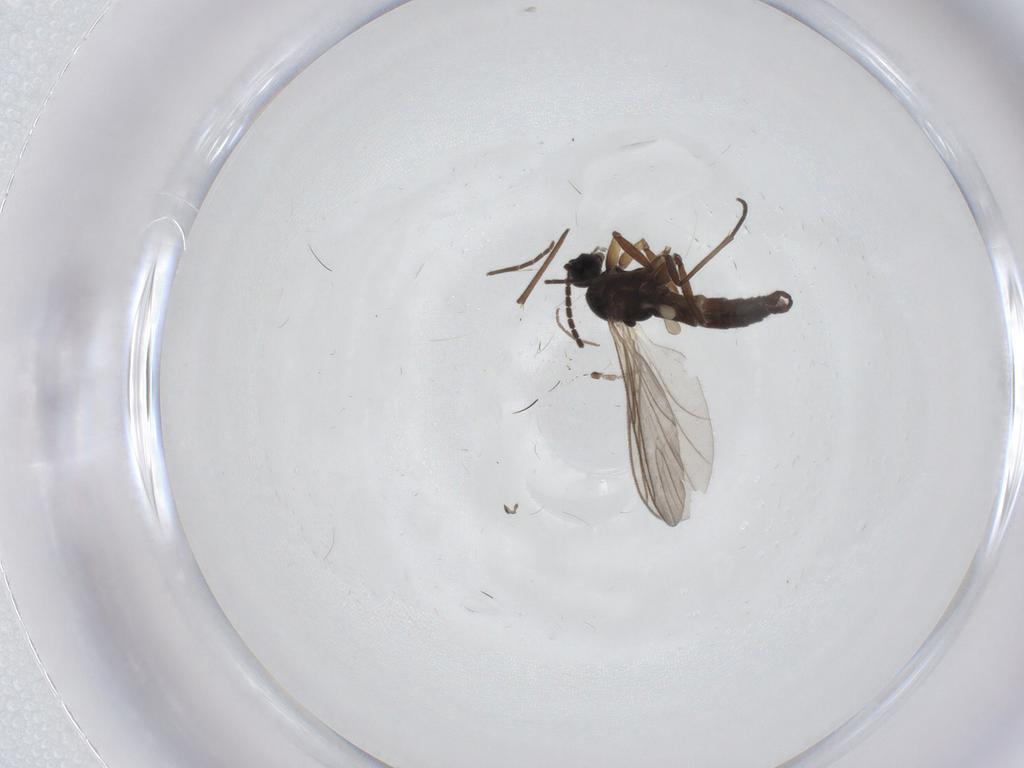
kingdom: Animalia
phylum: Arthropoda
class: Insecta
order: Diptera
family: Sciaridae
